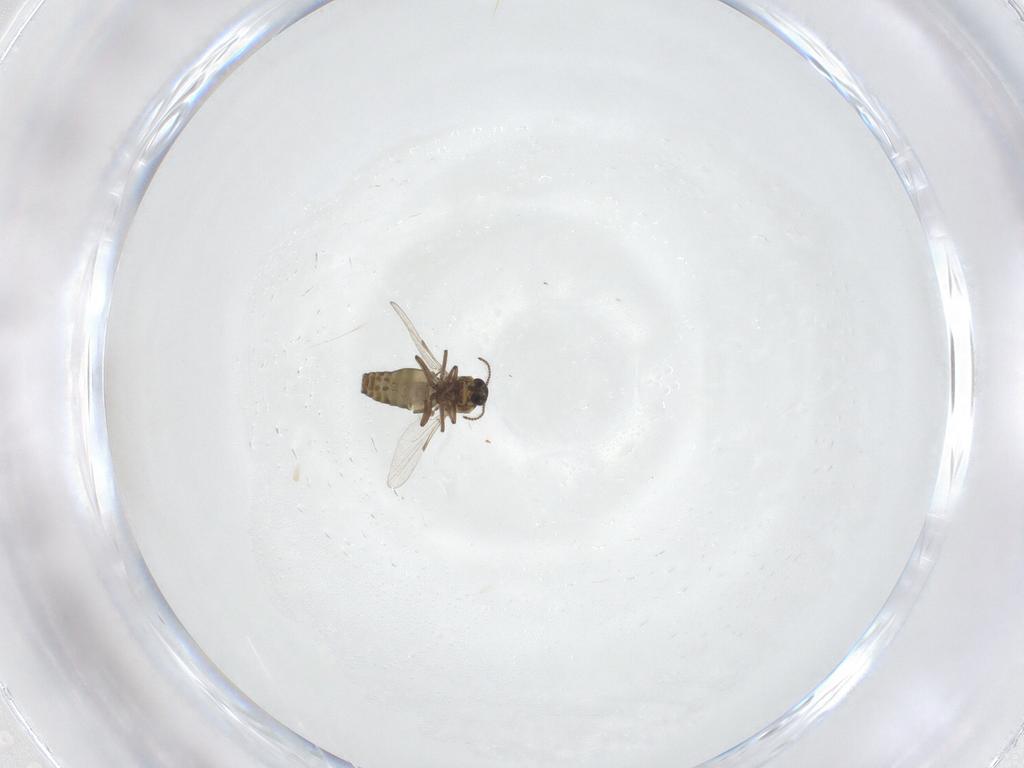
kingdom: Animalia
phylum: Arthropoda
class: Insecta
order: Diptera
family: Ceratopogonidae
